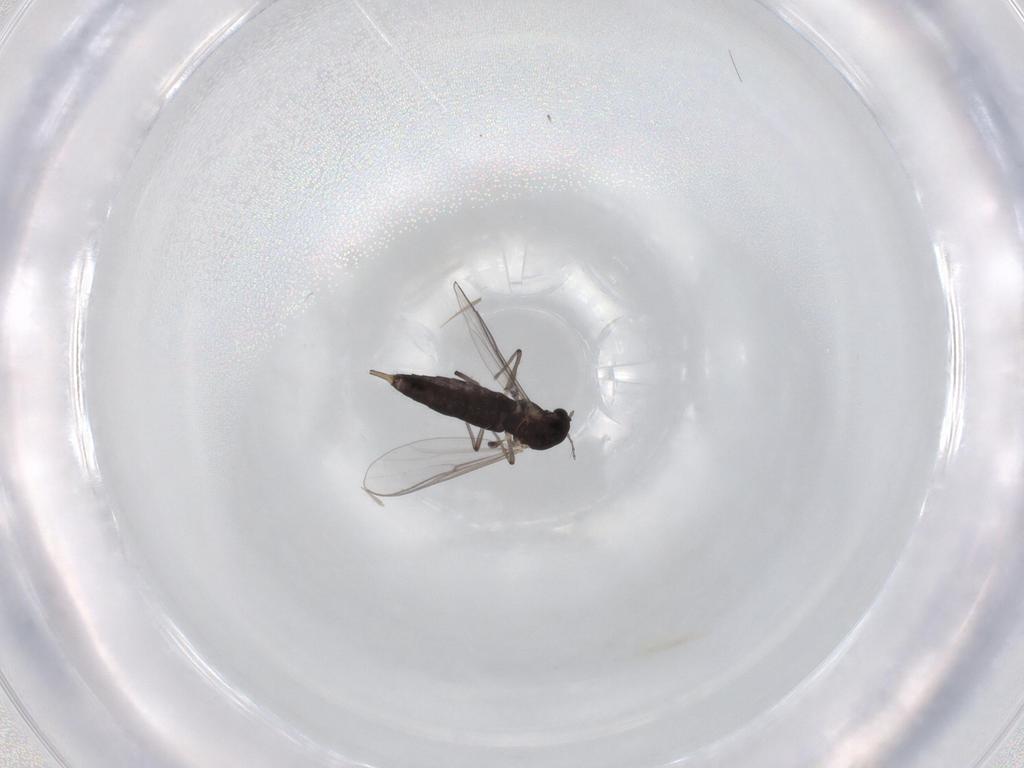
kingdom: Animalia
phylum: Arthropoda
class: Insecta
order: Diptera
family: Chironomidae
